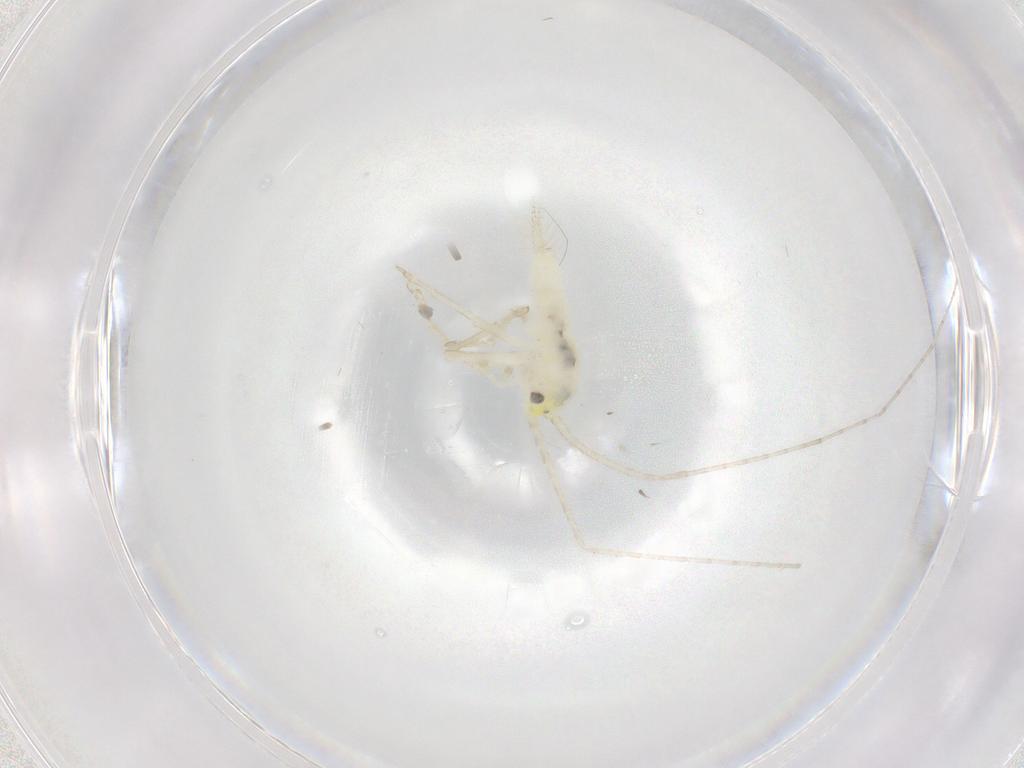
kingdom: Animalia
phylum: Arthropoda
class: Insecta
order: Orthoptera
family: Trigonidiidae
